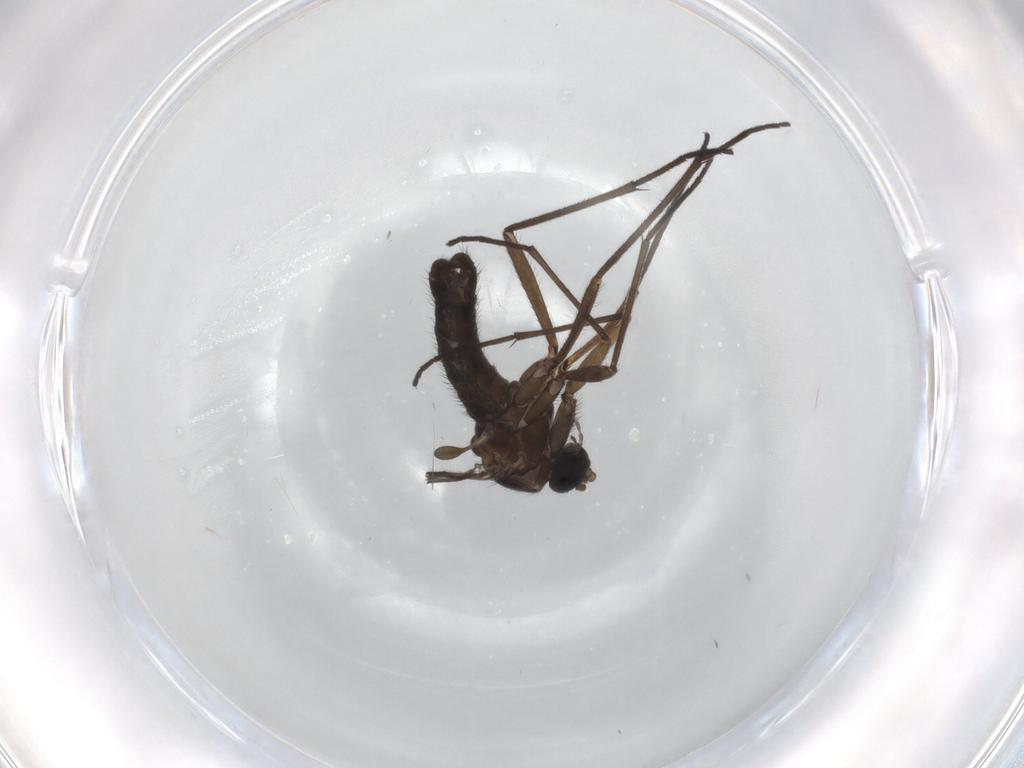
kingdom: Animalia
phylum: Arthropoda
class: Insecta
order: Diptera
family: Sciaridae
